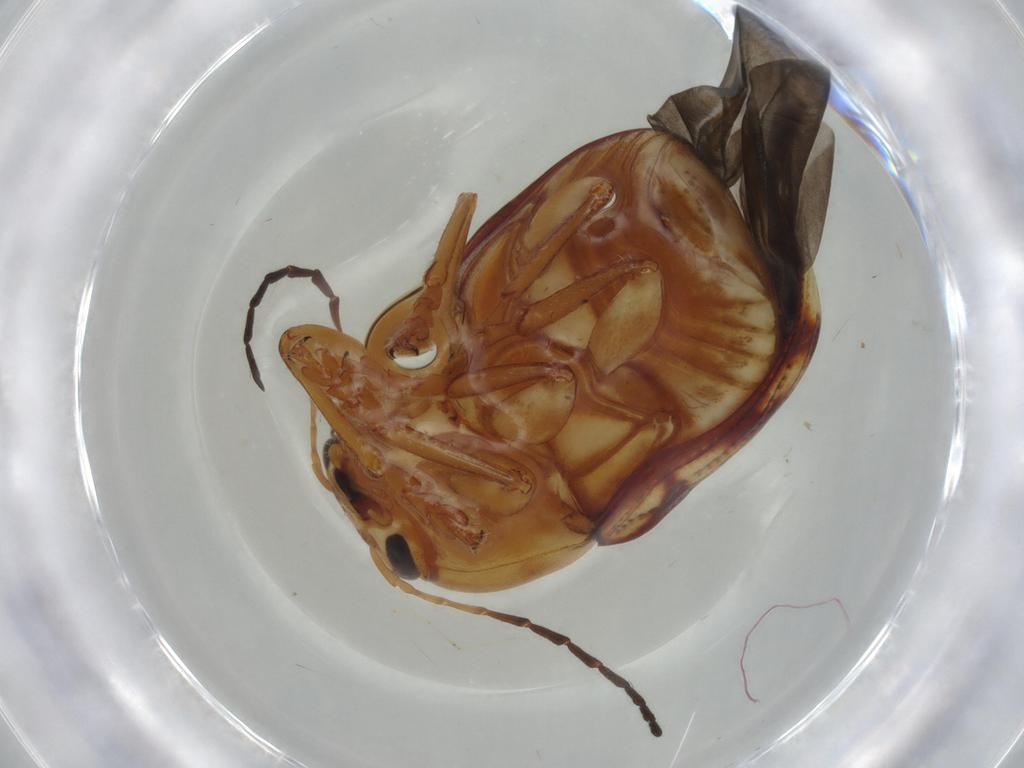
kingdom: Animalia
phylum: Arthropoda
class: Insecta
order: Coleoptera
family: Chrysomelidae
